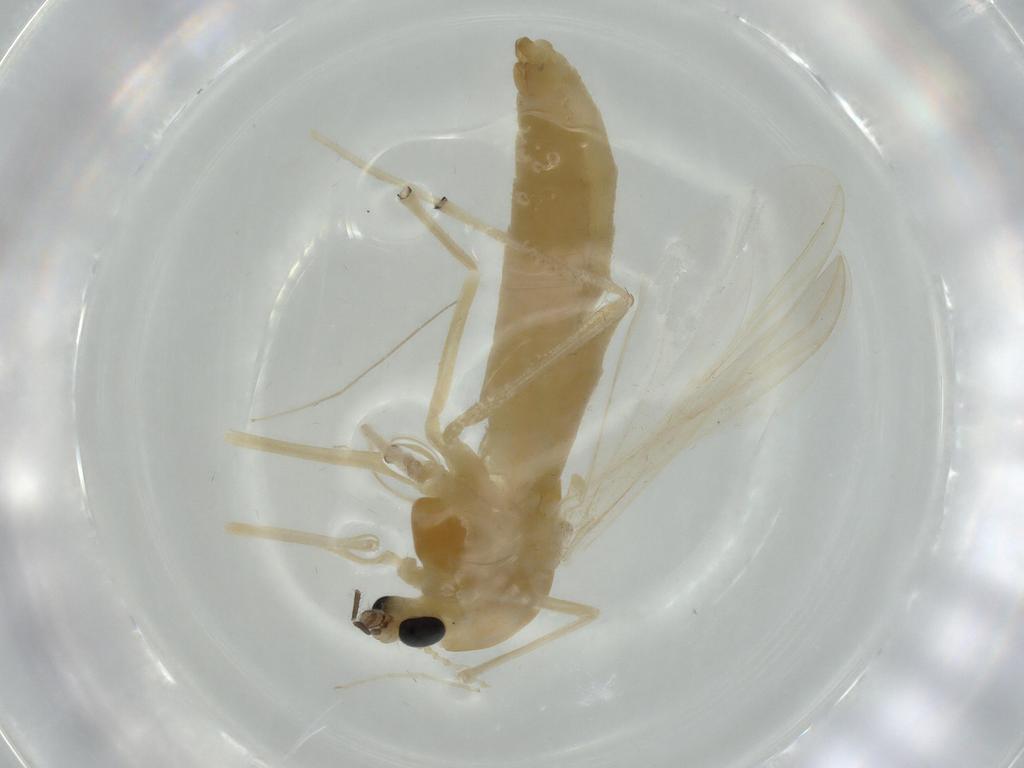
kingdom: Animalia
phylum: Arthropoda
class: Insecta
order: Diptera
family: Chironomidae
